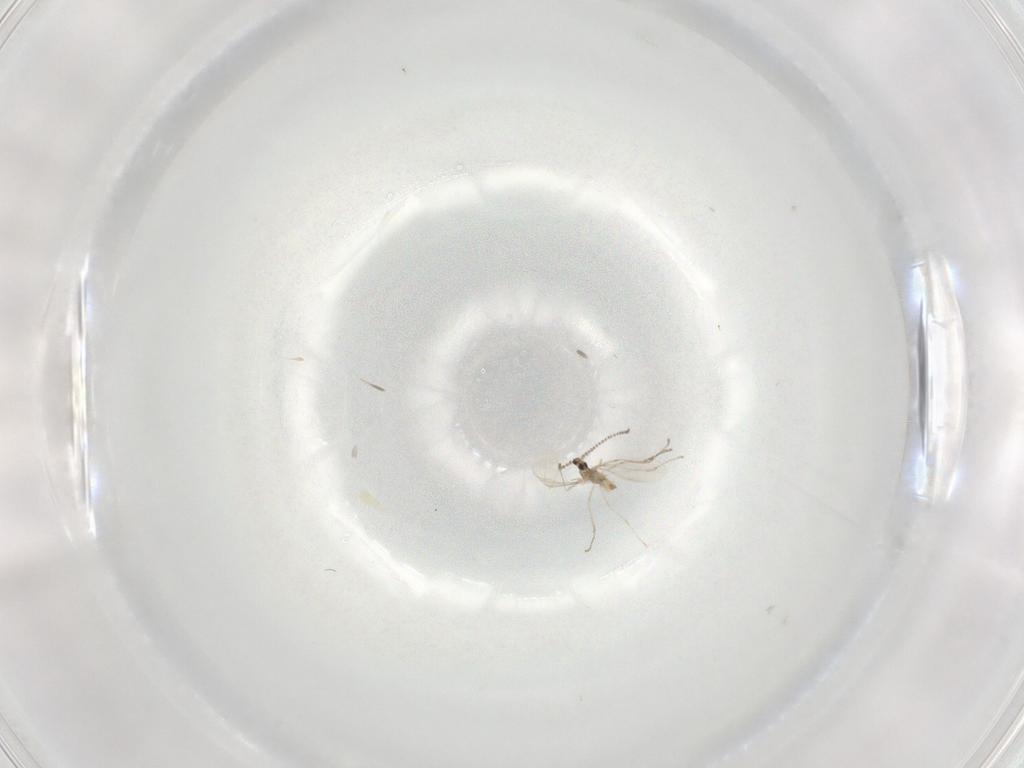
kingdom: Animalia
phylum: Arthropoda
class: Insecta
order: Diptera
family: Cecidomyiidae
